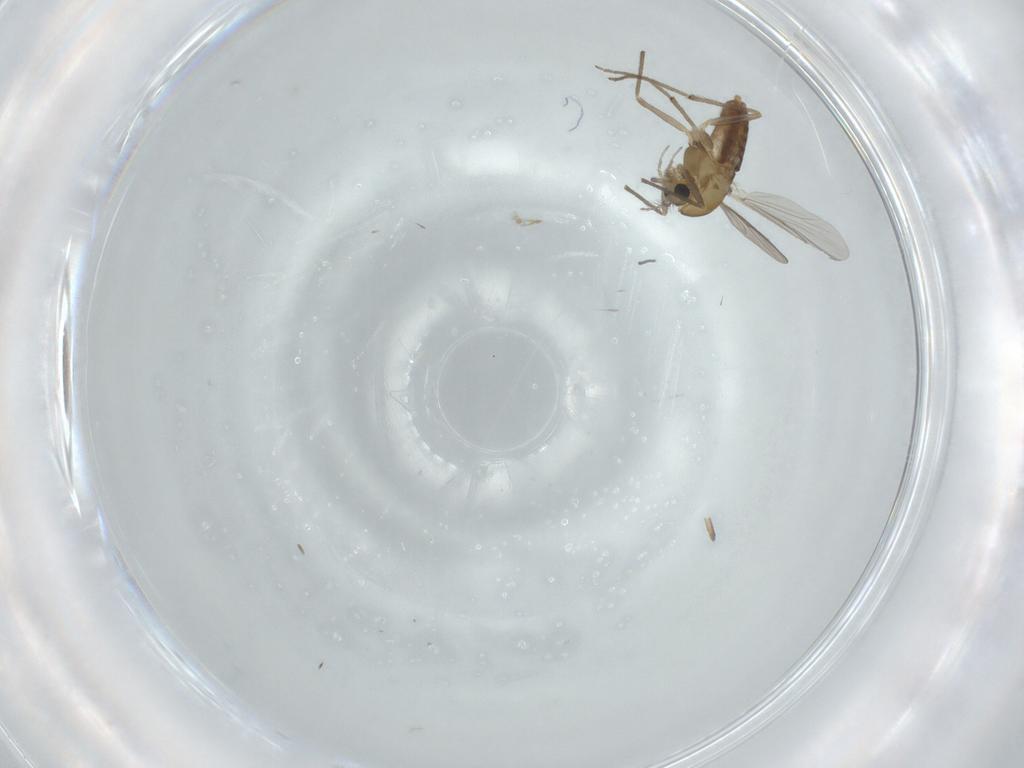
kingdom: Animalia
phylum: Arthropoda
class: Insecta
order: Diptera
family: Chironomidae
